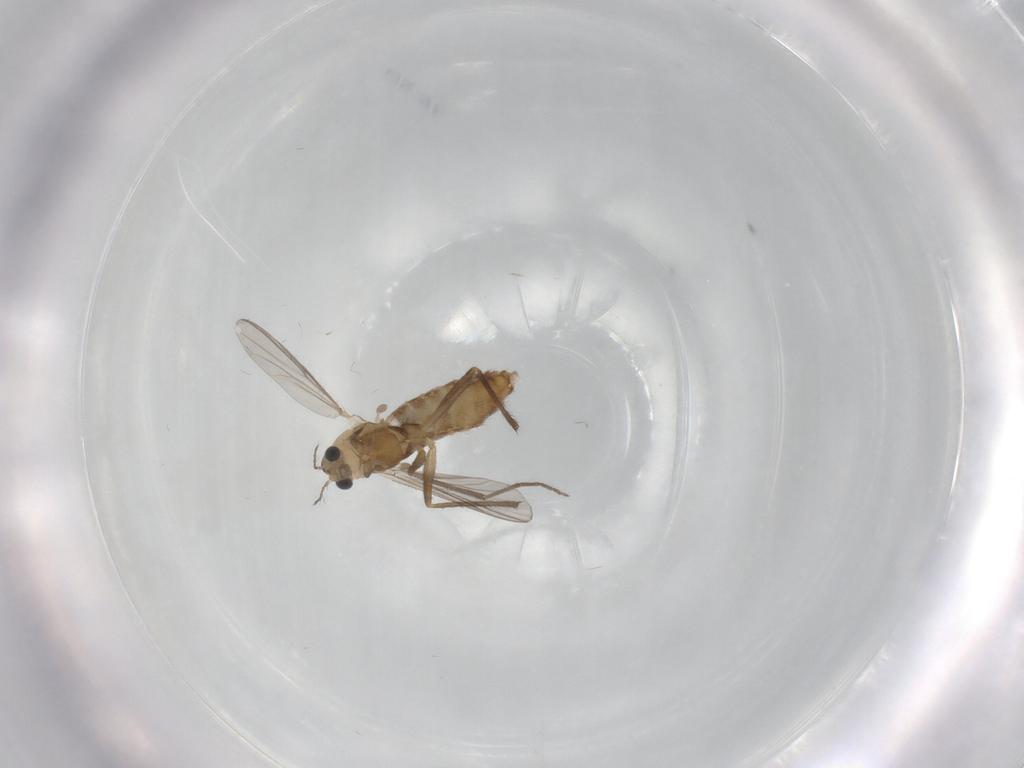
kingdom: Animalia
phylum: Arthropoda
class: Insecta
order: Diptera
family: Chironomidae
